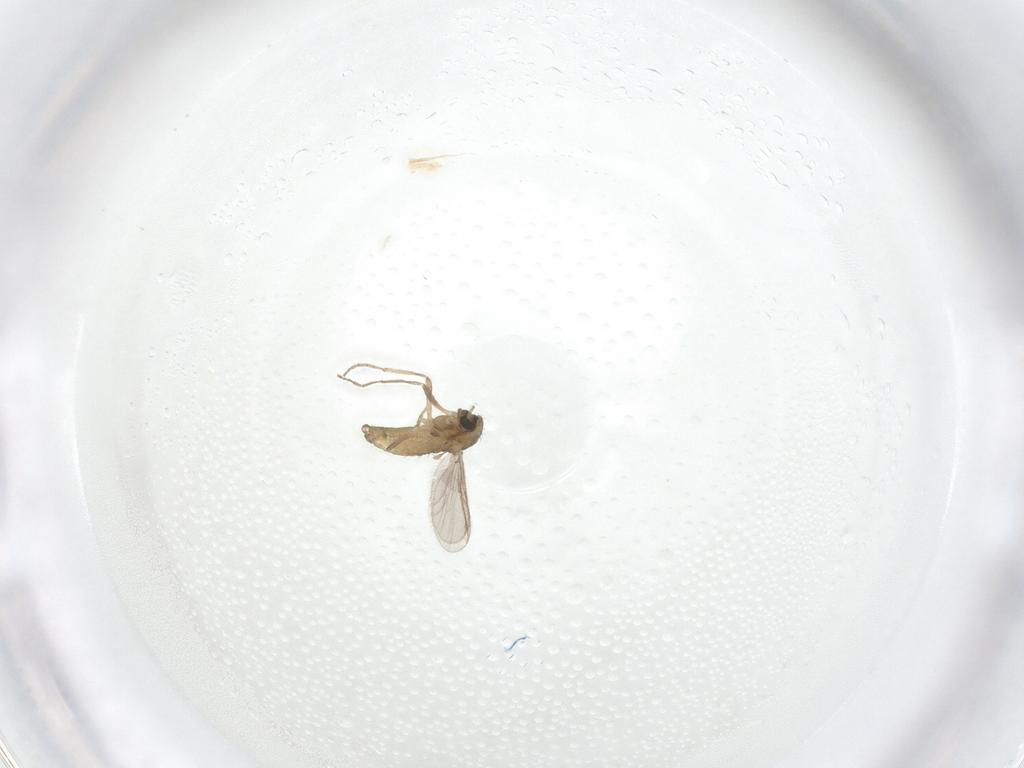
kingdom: Animalia
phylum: Arthropoda
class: Insecta
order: Diptera
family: Chironomidae
